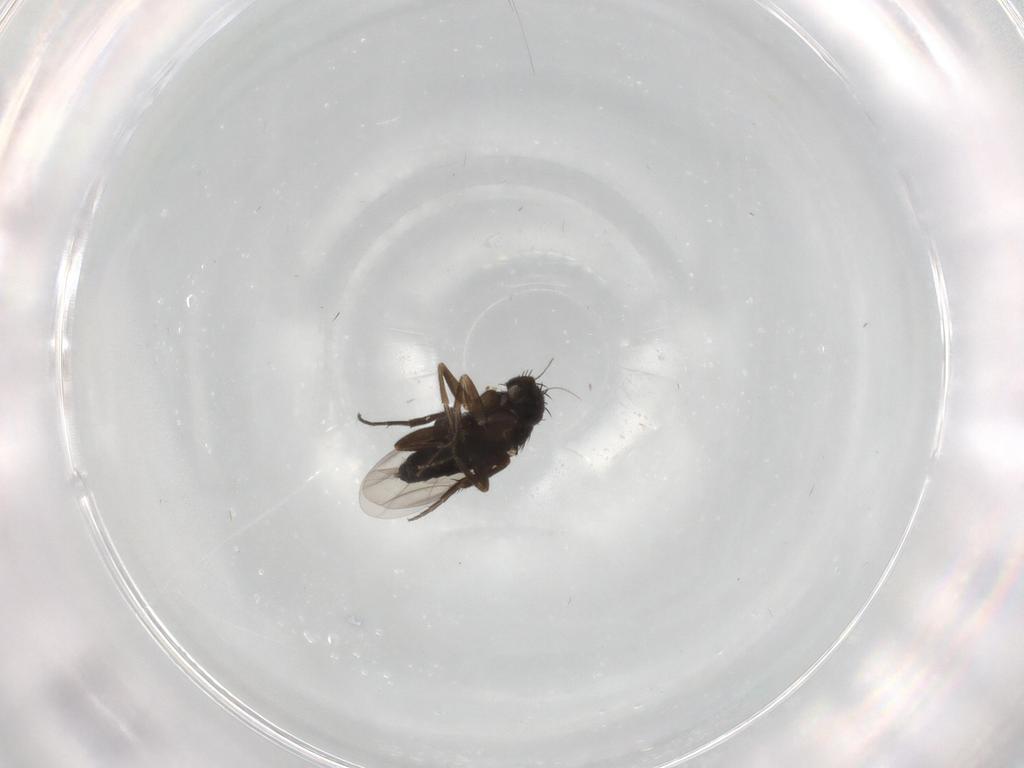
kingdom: Animalia
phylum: Arthropoda
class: Insecta
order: Diptera
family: Phoridae
